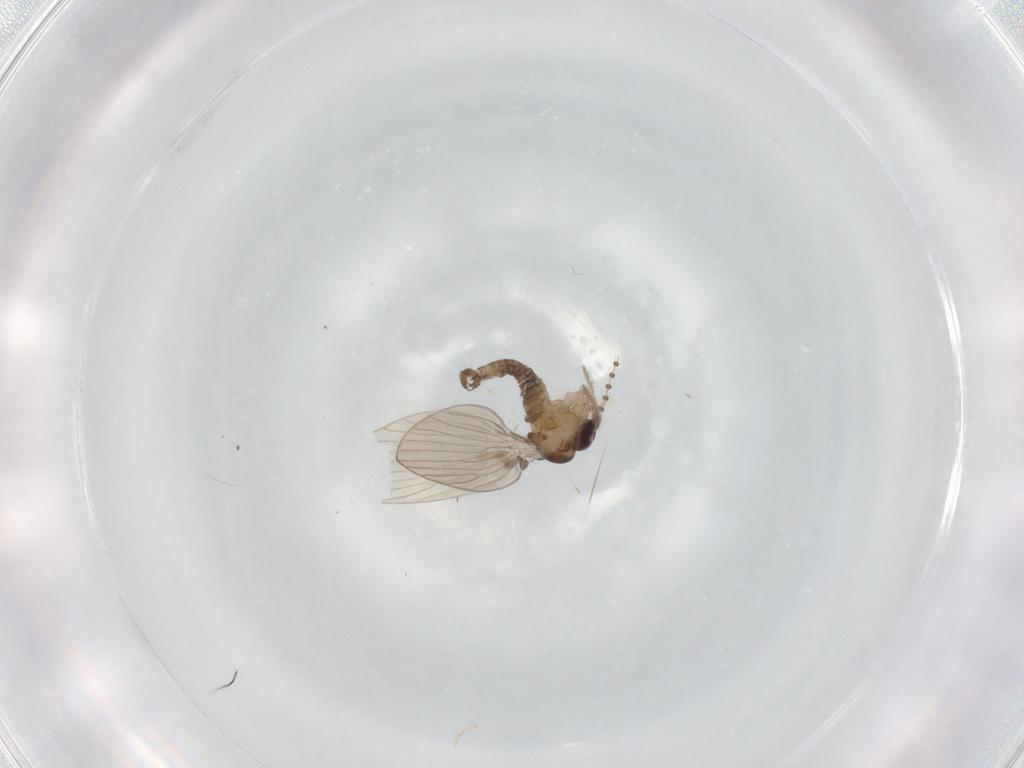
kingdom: Animalia
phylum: Arthropoda
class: Insecta
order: Diptera
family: Psychodidae
